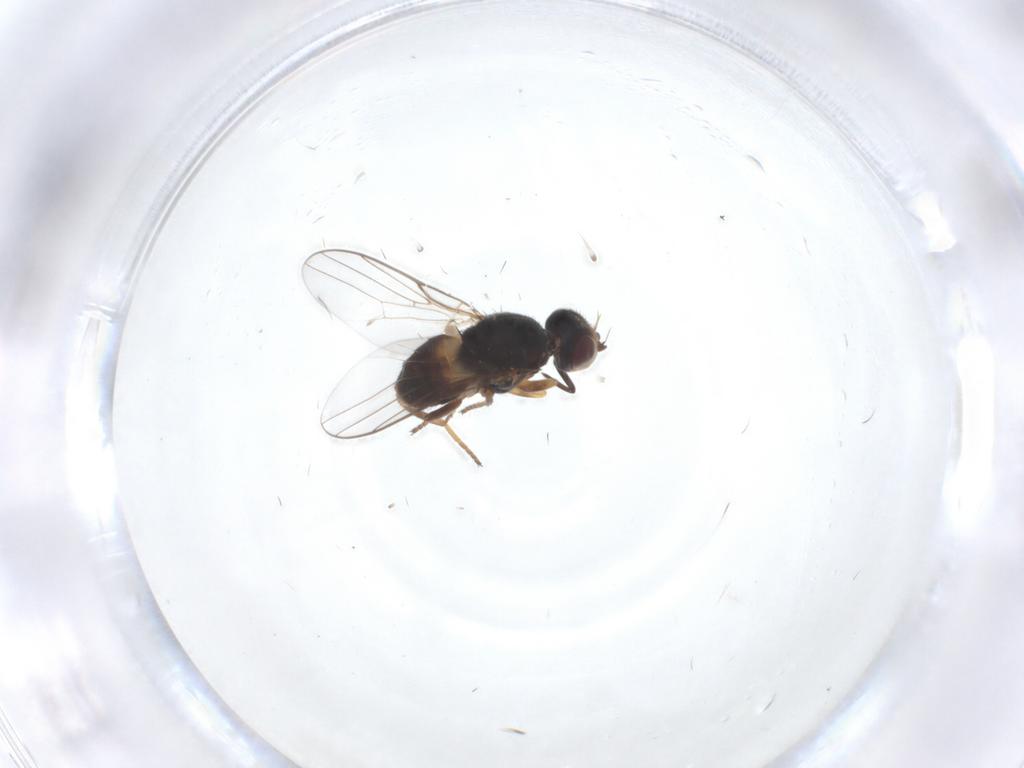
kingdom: Animalia
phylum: Arthropoda
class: Insecta
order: Diptera
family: Chloropidae
